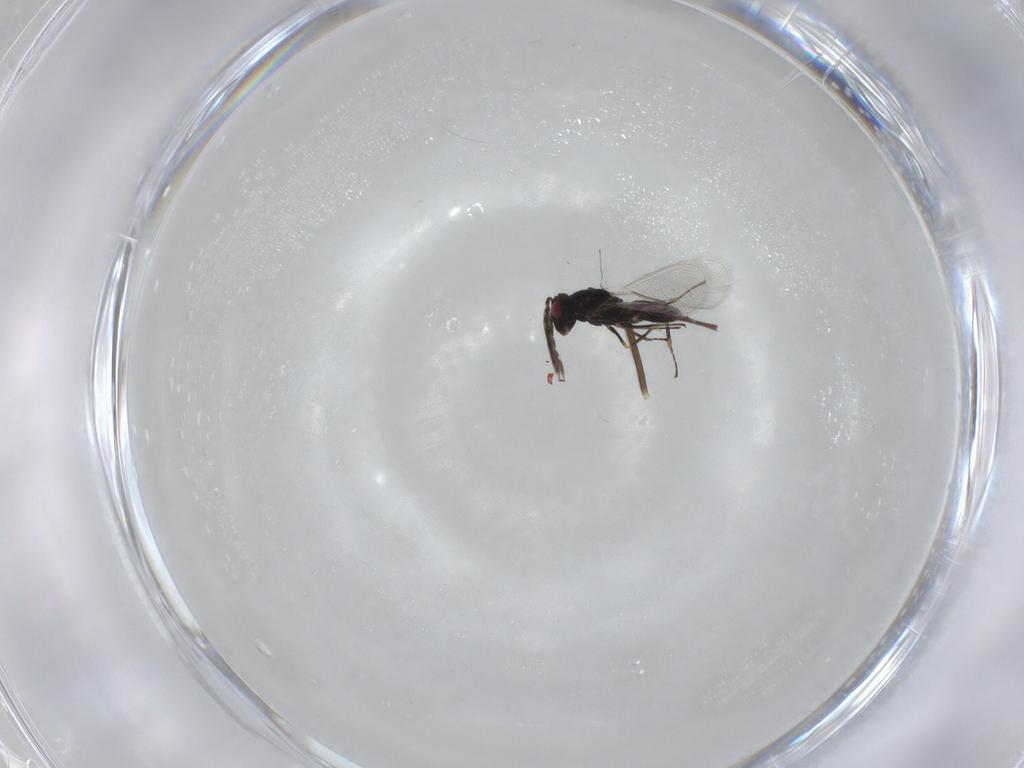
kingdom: Animalia
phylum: Arthropoda
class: Insecta
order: Hymenoptera
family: Eulophidae
